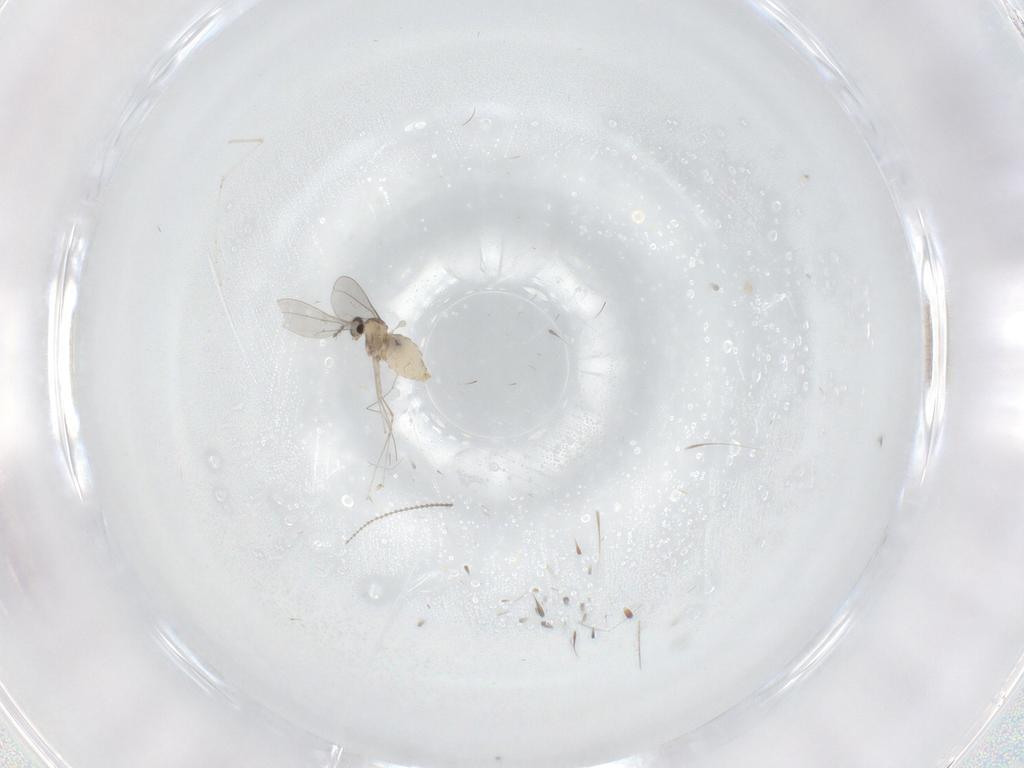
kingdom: Animalia
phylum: Arthropoda
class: Insecta
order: Diptera
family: Cecidomyiidae
